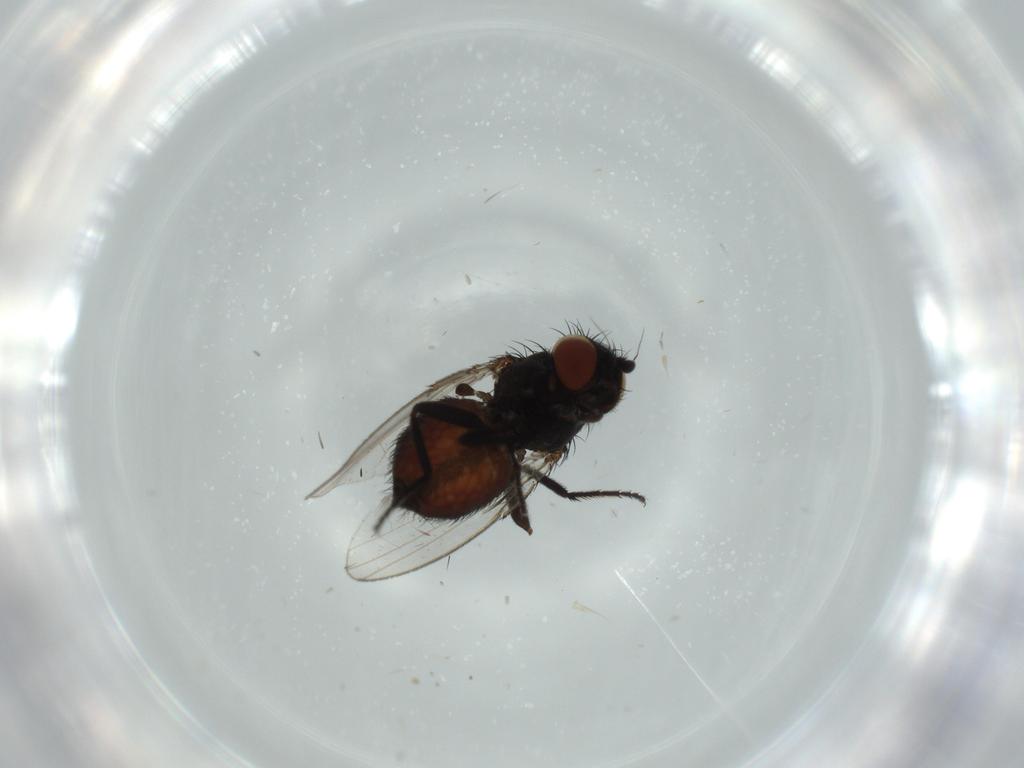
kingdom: Animalia
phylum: Arthropoda
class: Insecta
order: Diptera
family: Milichiidae
